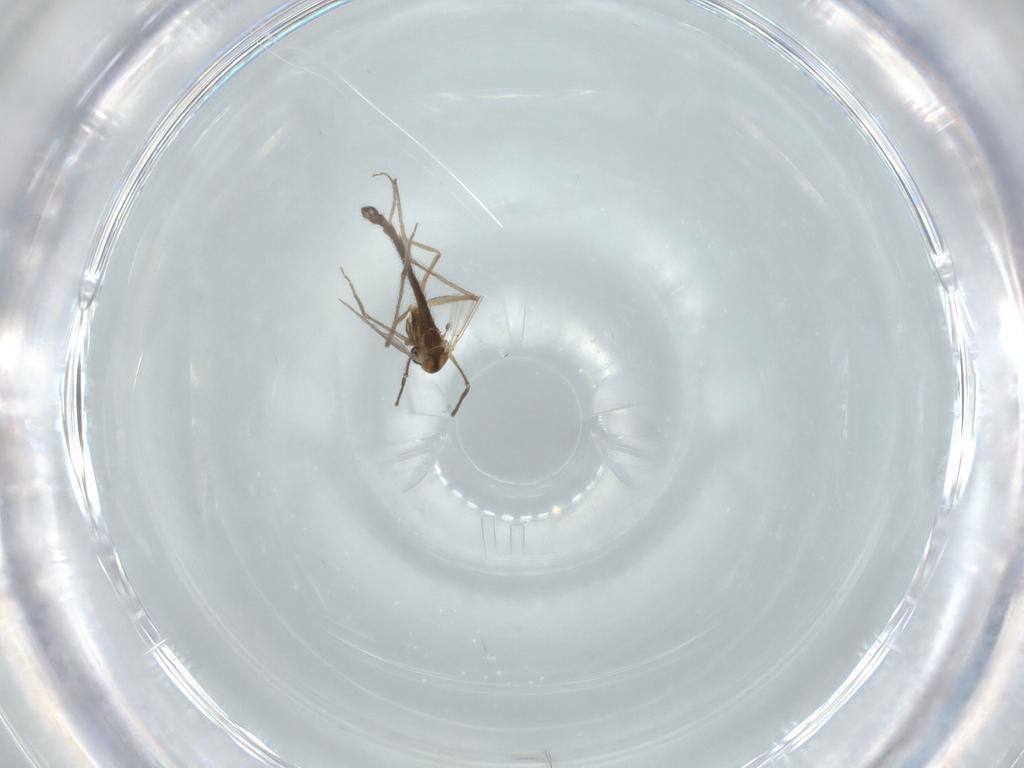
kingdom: Animalia
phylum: Arthropoda
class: Insecta
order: Diptera
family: Chironomidae
